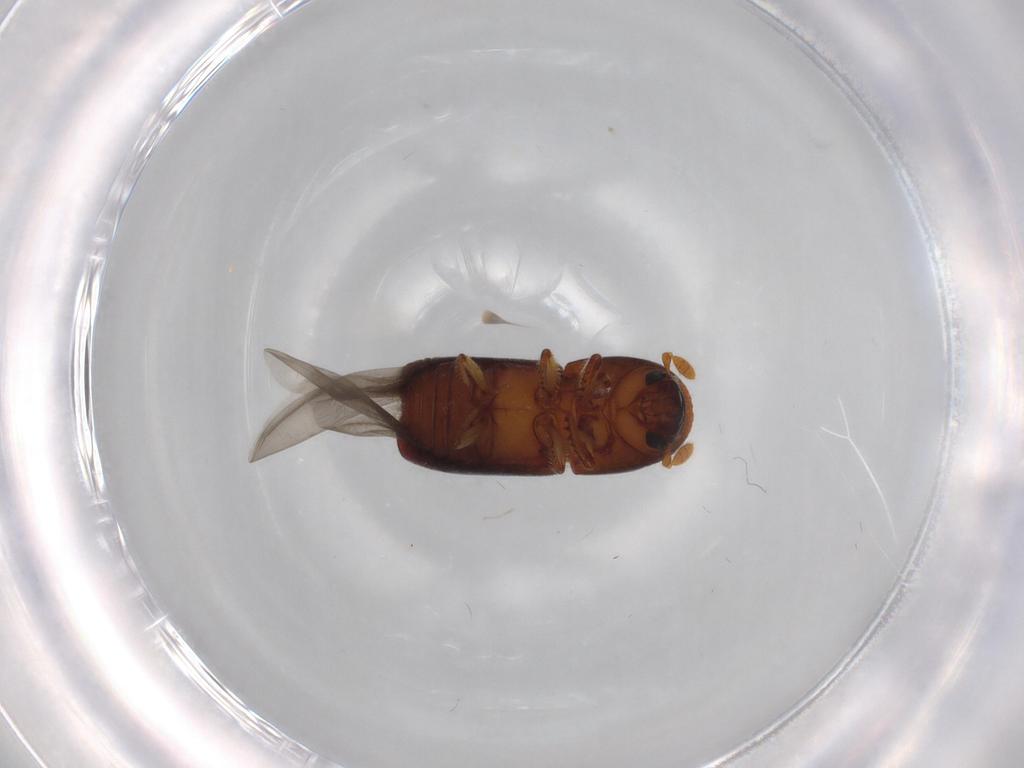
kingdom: Animalia
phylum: Arthropoda
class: Insecta
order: Coleoptera
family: Curculionidae
